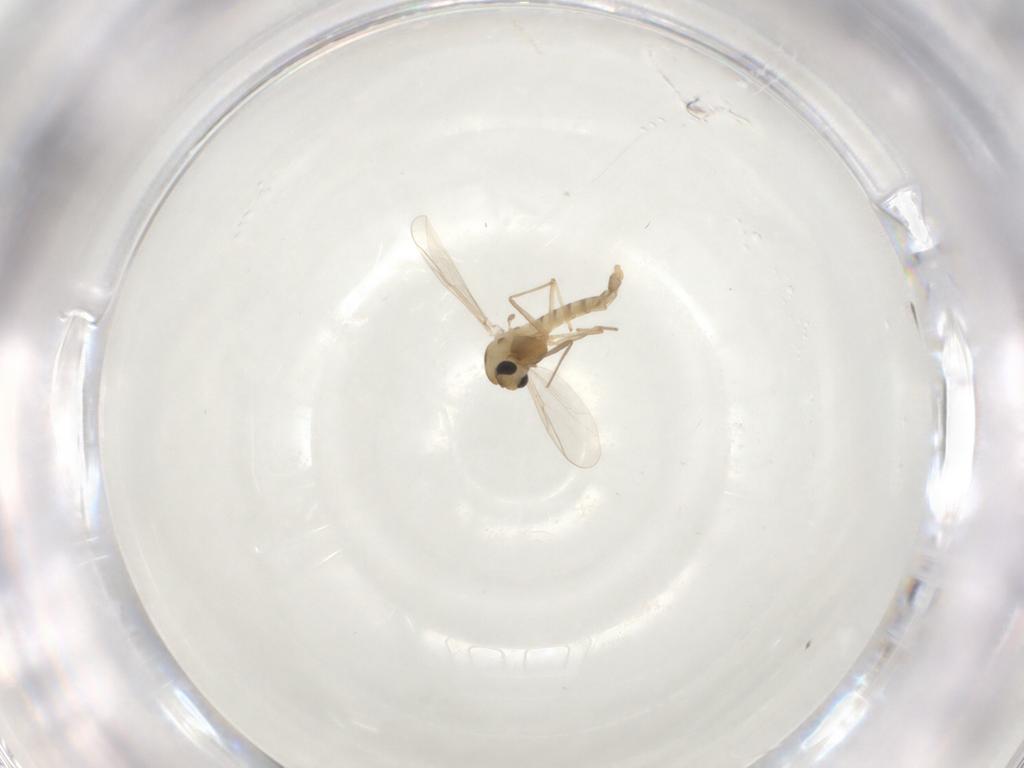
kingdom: Animalia
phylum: Arthropoda
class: Insecta
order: Diptera
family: Chironomidae
